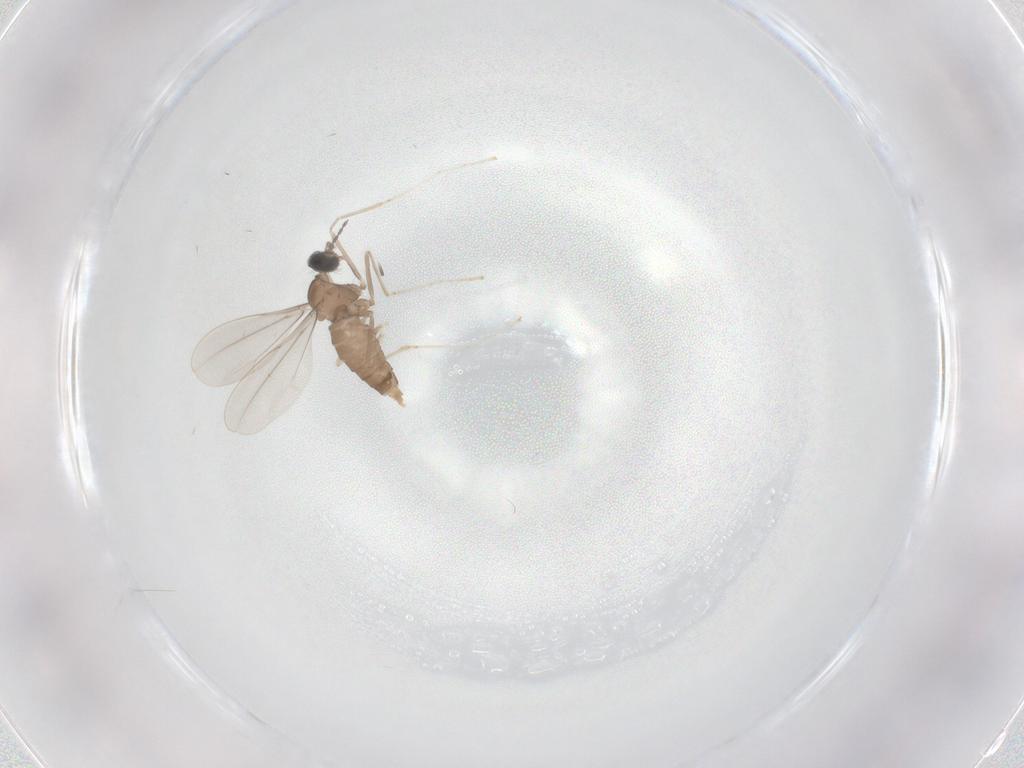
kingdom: Animalia
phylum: Arthropoda
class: Insecta
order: Diptera
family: Cecidomyiidae
